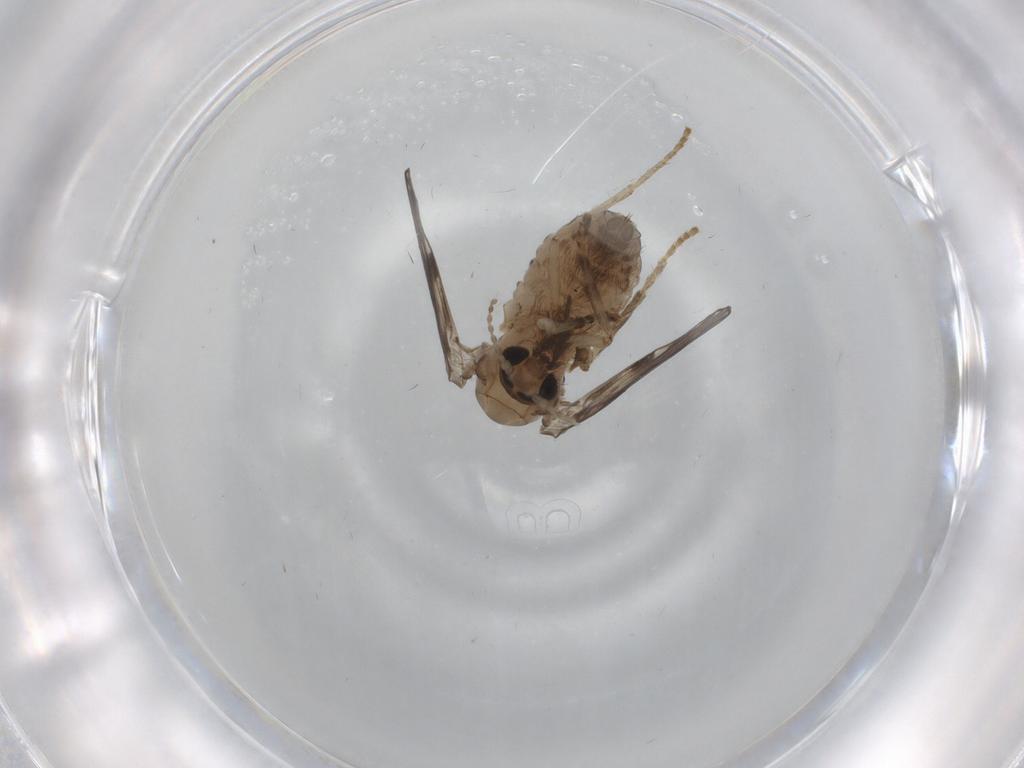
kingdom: Animalia
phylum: Arthropoda
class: Insecta
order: Diptera
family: Psychodidae
